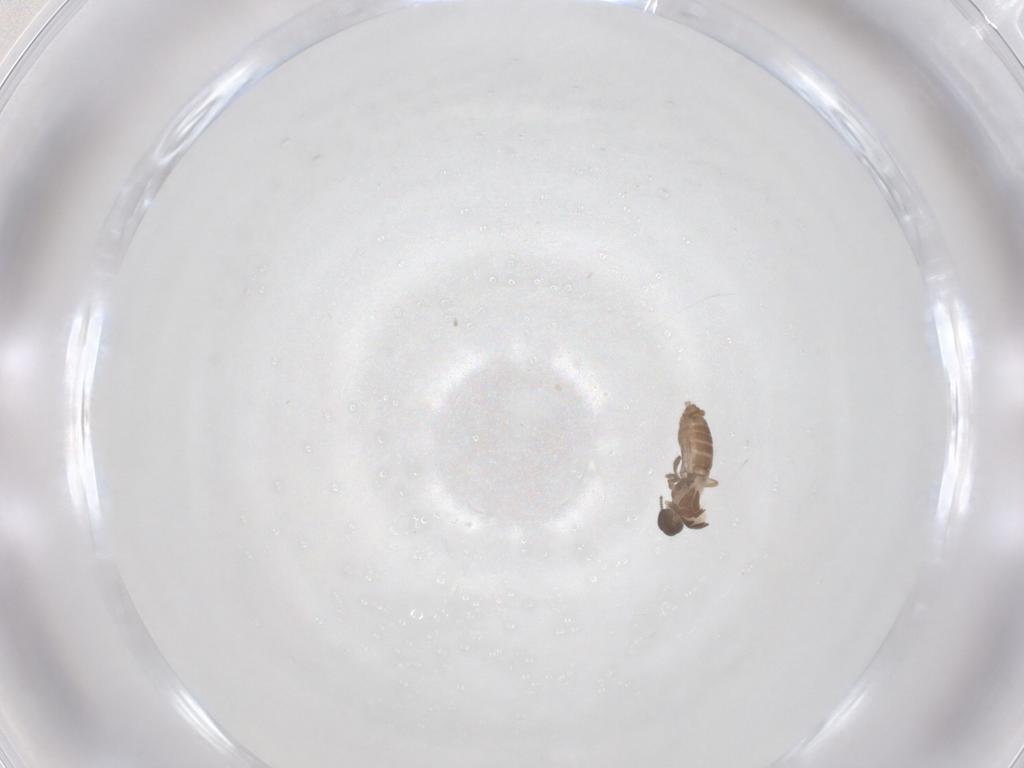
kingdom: Animalia
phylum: Arthropoda
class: Insecta
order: Diptera
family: Ceratopogonidae
